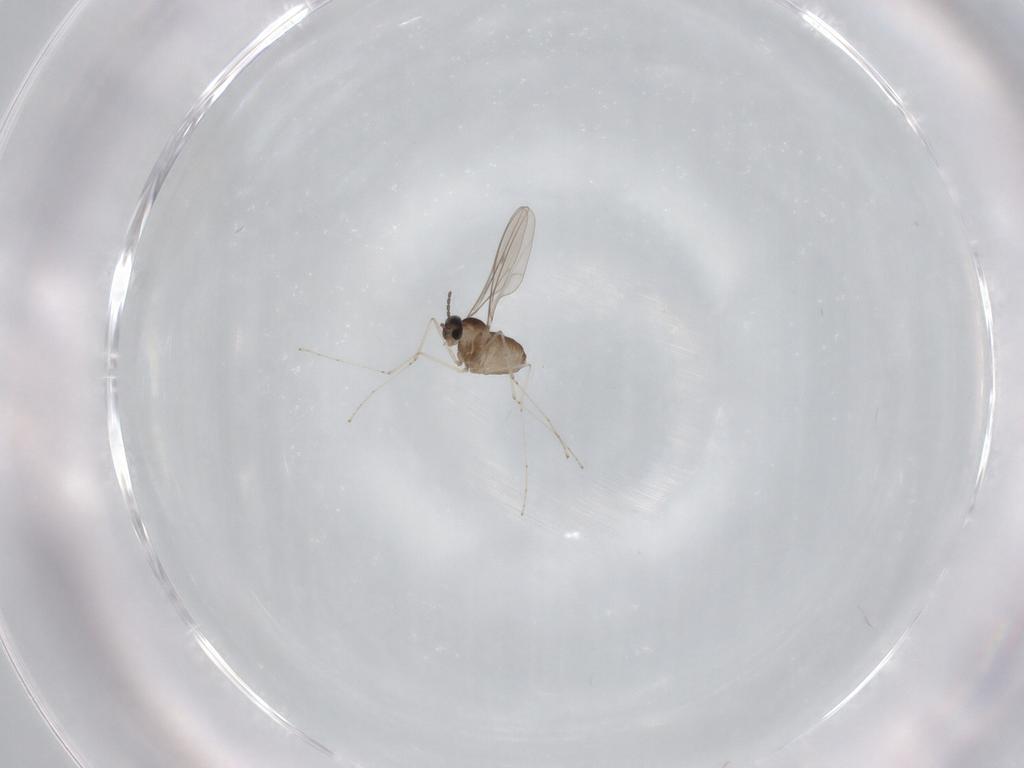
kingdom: Animalia
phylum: Arthropoda
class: Insecta
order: Diptera
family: Cecidomyiidae
